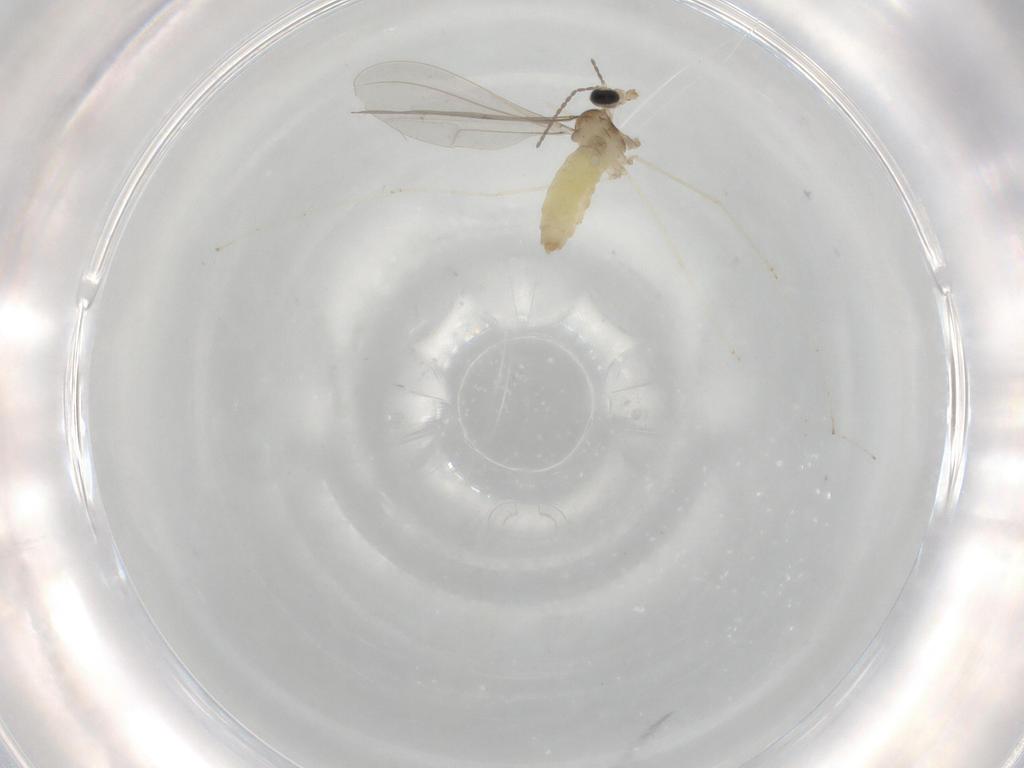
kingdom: Animalia
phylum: Arthropoda
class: Insecta
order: Diptera
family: Cecidomyiidae
